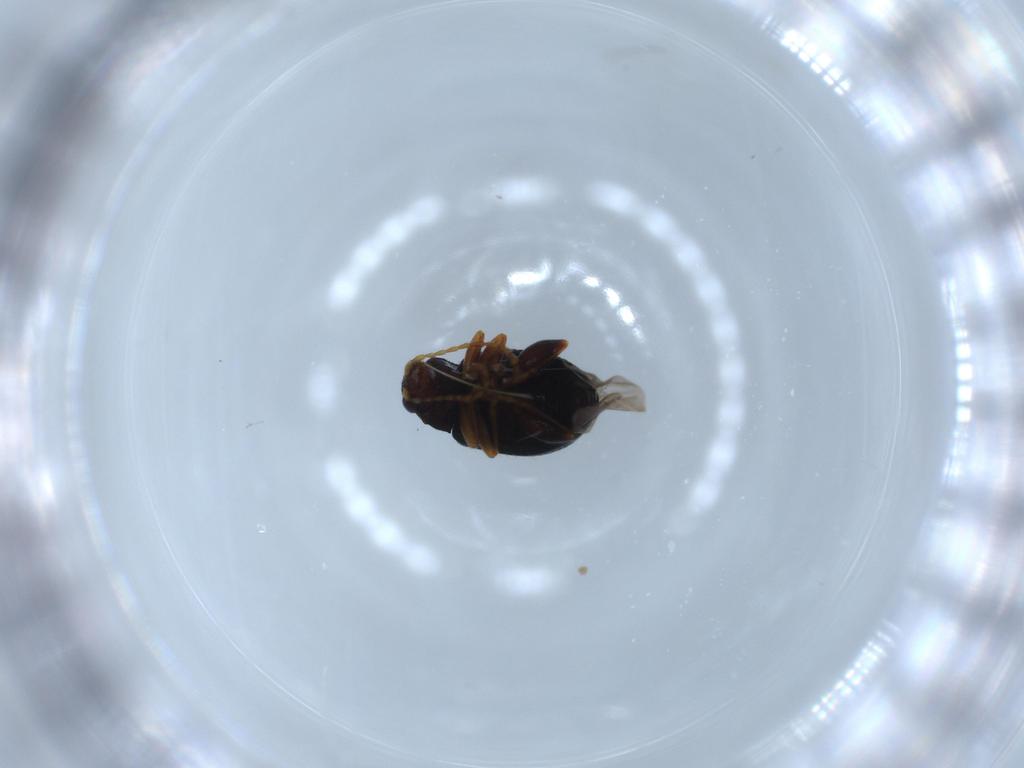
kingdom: Animalia
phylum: Arthropoda
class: Insecta
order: Coleoptera
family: Chrysomelidae
